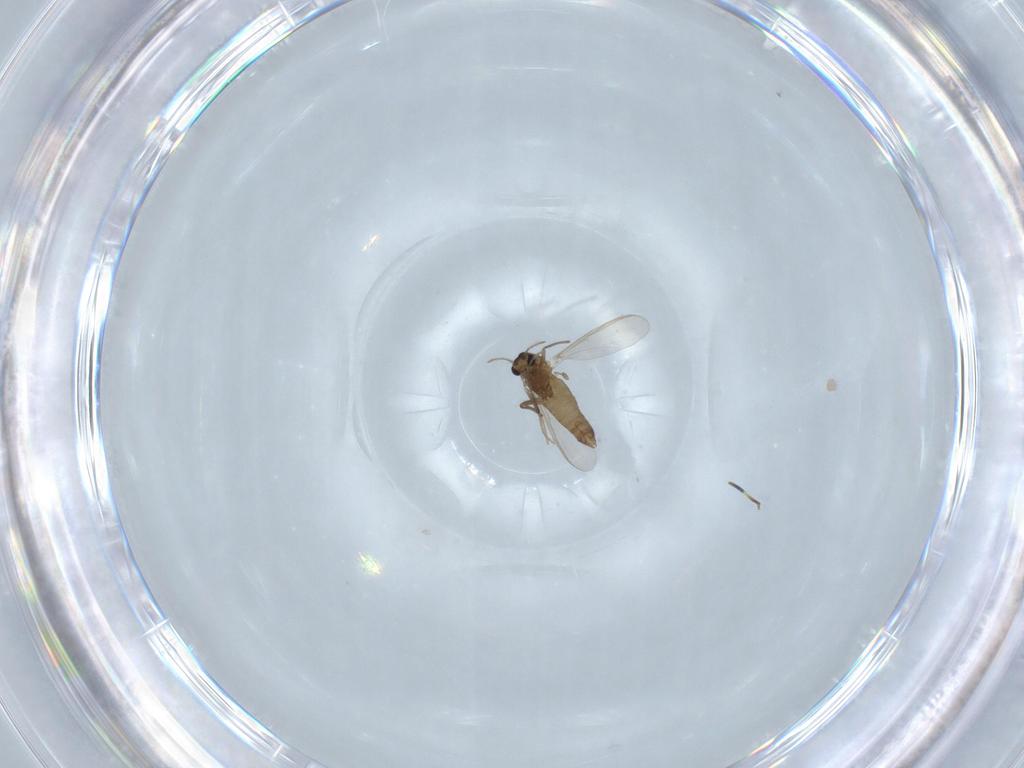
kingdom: Animalia
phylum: Arthropoda
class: Insecta
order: Diptera
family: Chironomidae
